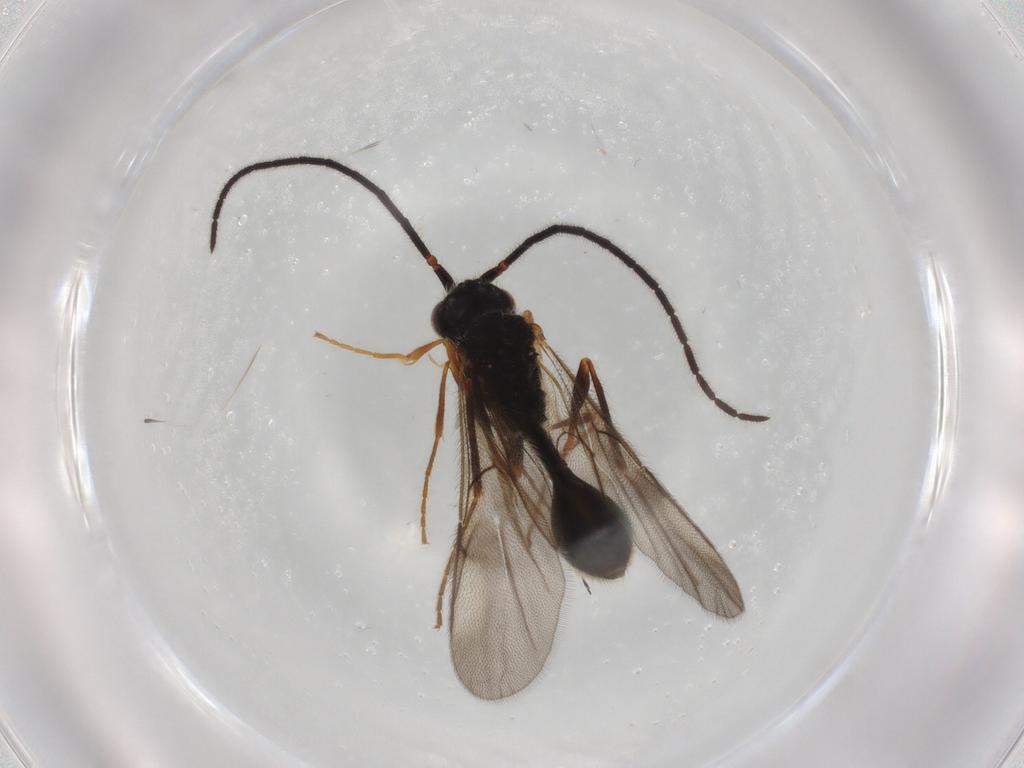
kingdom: Animalia
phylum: Arthropoda
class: Insecta
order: Hymenoptera
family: Diapriidae
